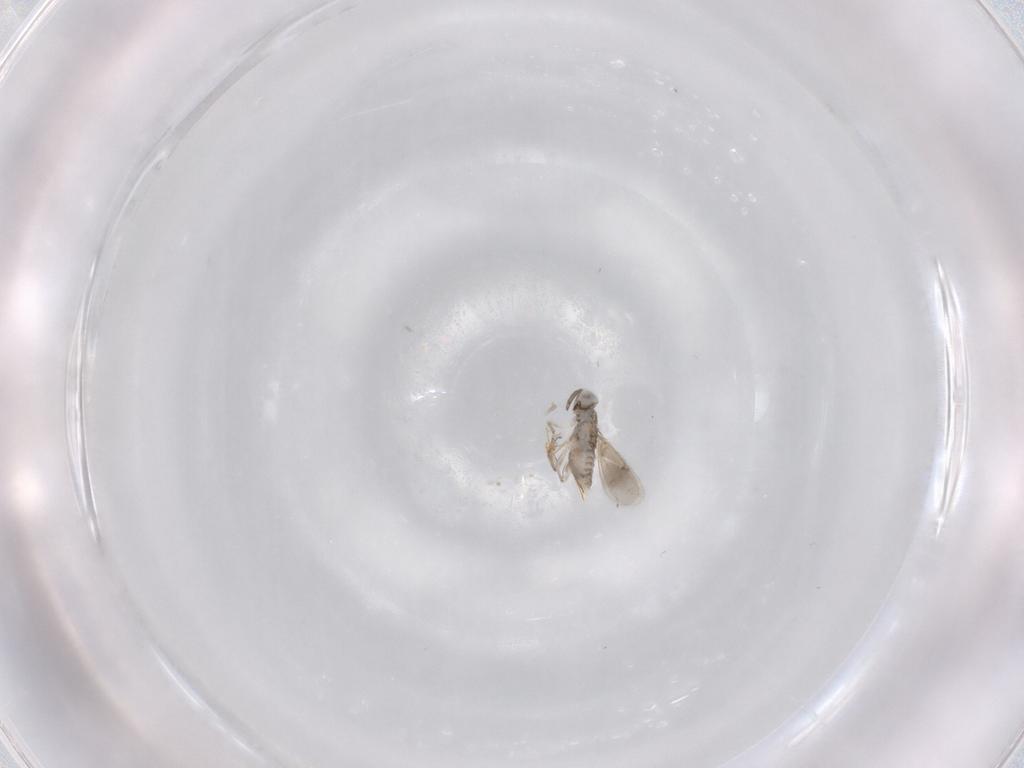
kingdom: Animalia
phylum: Arthropoda
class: Insecta
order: Hymenoptera
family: Aphelinidae
